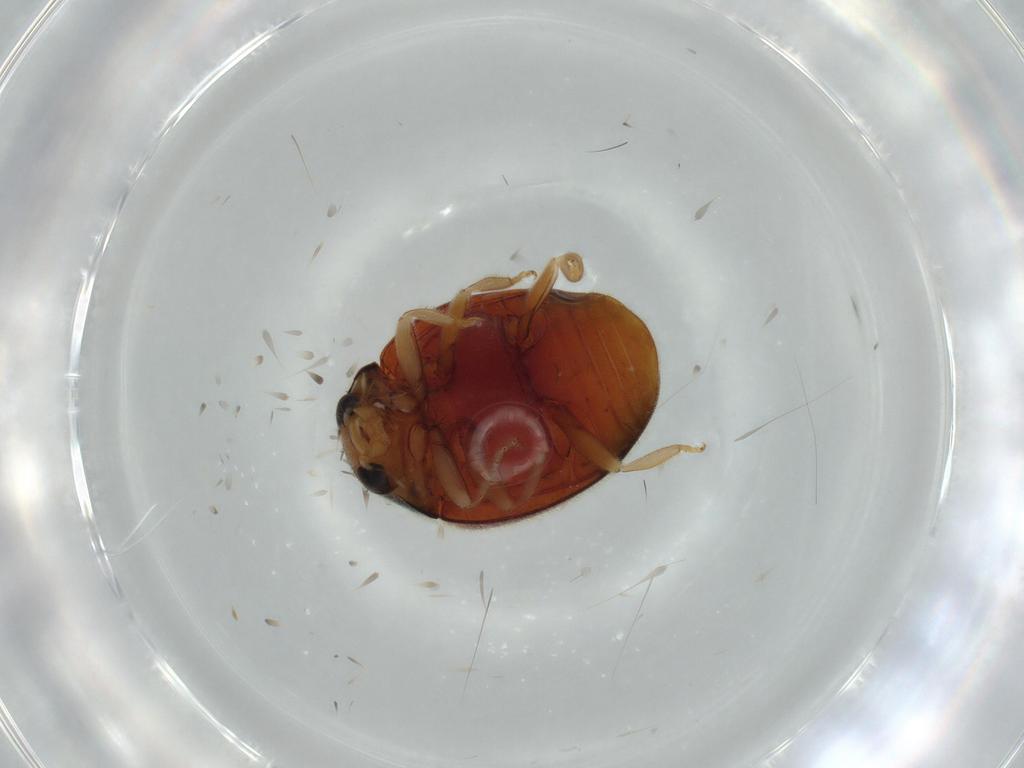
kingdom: Animalia
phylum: Arthropoda
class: Insecta
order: Coleoptera
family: Coccinellidae
